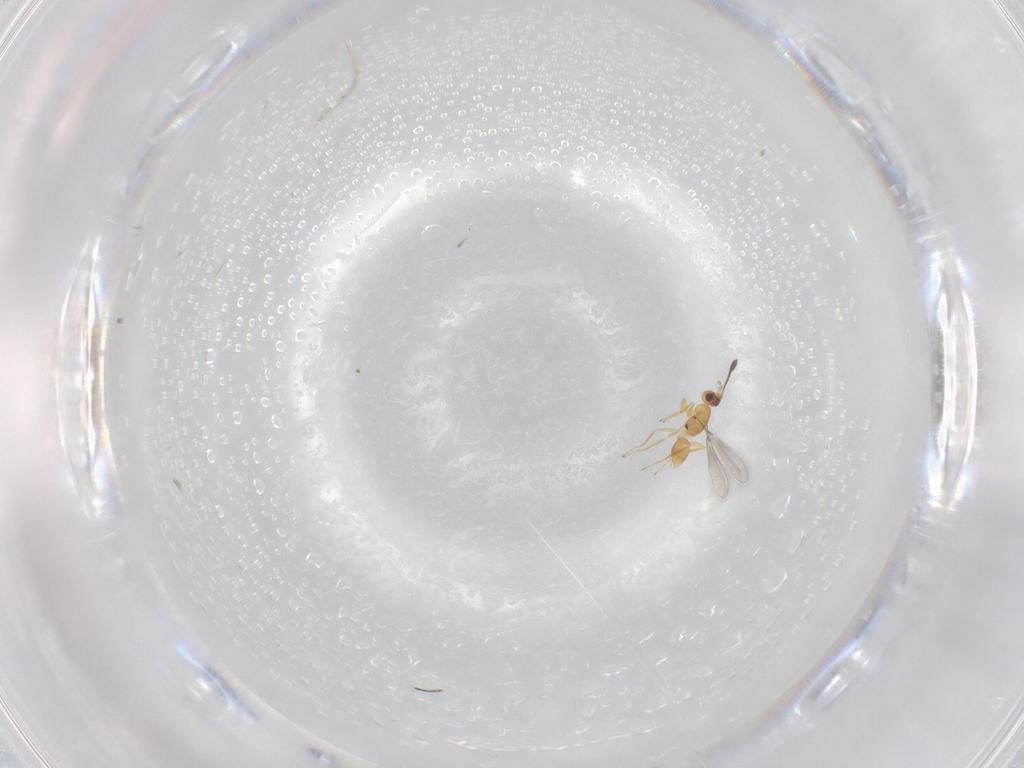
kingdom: Animalia
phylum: Arthropoda
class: Insecta
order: Hymenoptera
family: Mymaridae
